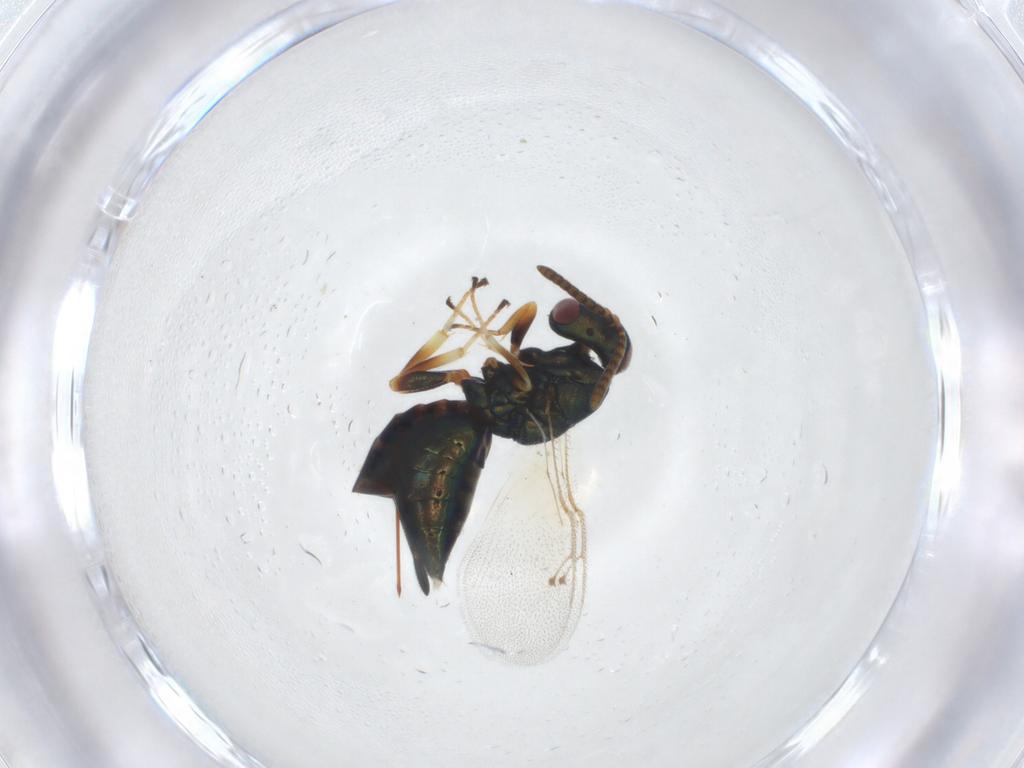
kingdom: Animalia
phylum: Arthropoda
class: Insecta
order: Hymenoptera
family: Pteromalidae
